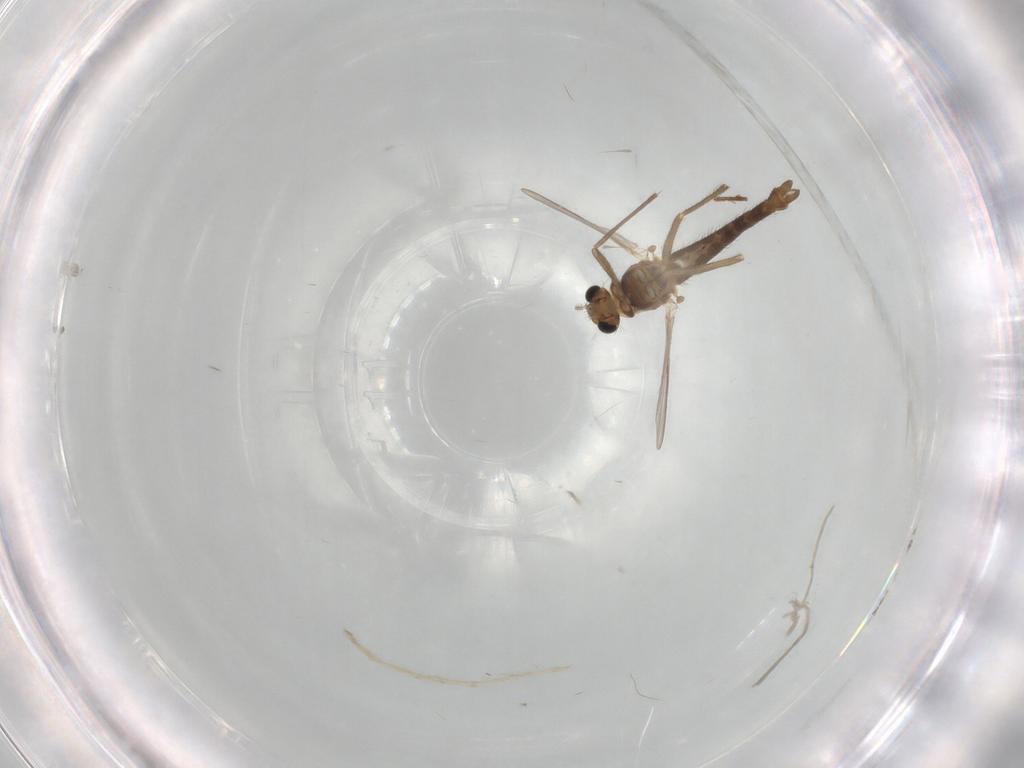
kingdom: Animalia
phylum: Arthropoda
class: Insecta
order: Diptera
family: Chironomidae
